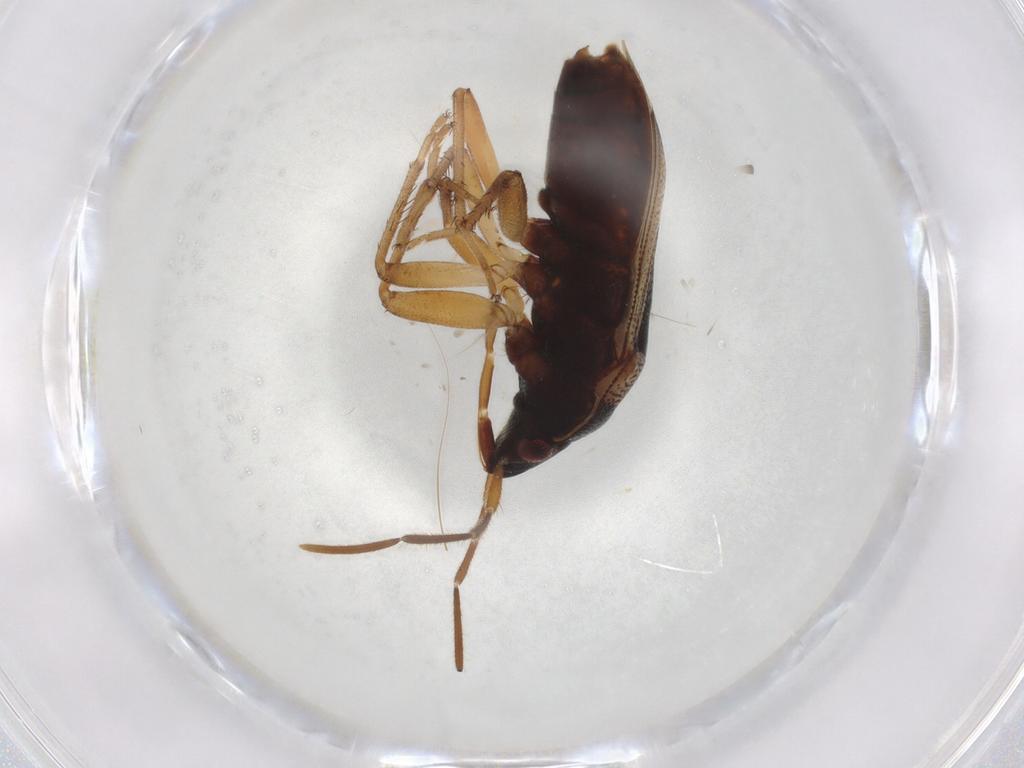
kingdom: Animalia
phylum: Arthropoda
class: Insecta
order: Hemiptera
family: Rhyparochromidae
